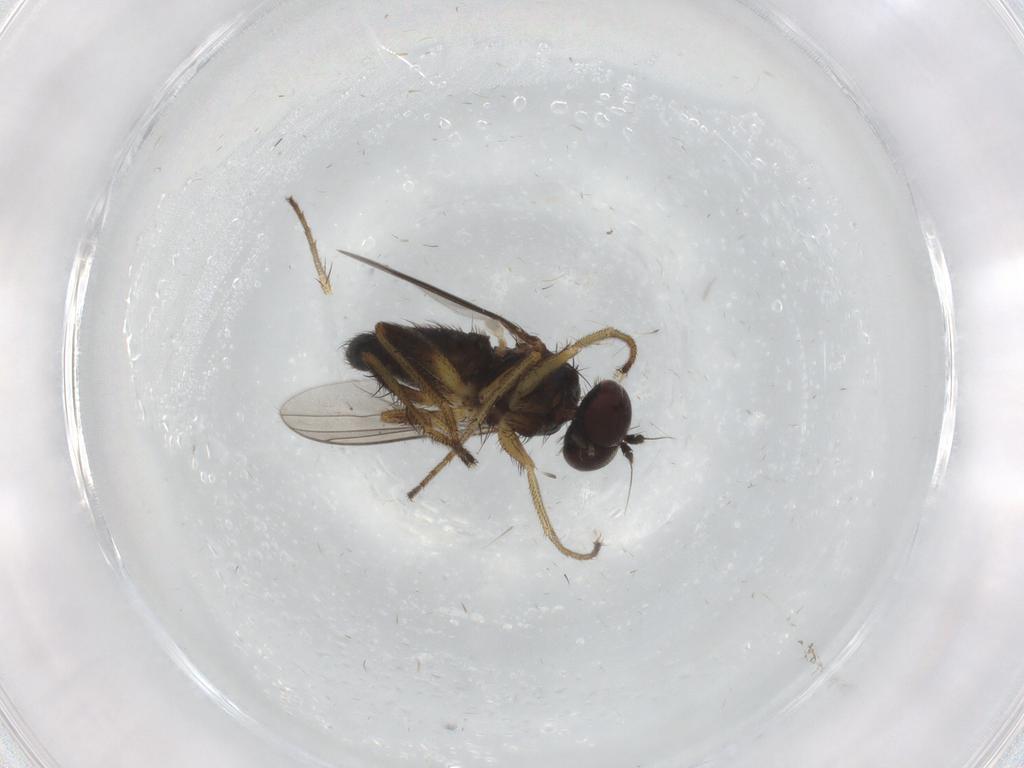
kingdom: Animalia
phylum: Arthropoda
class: Insecta
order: Diptera
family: Dolichopodidae
